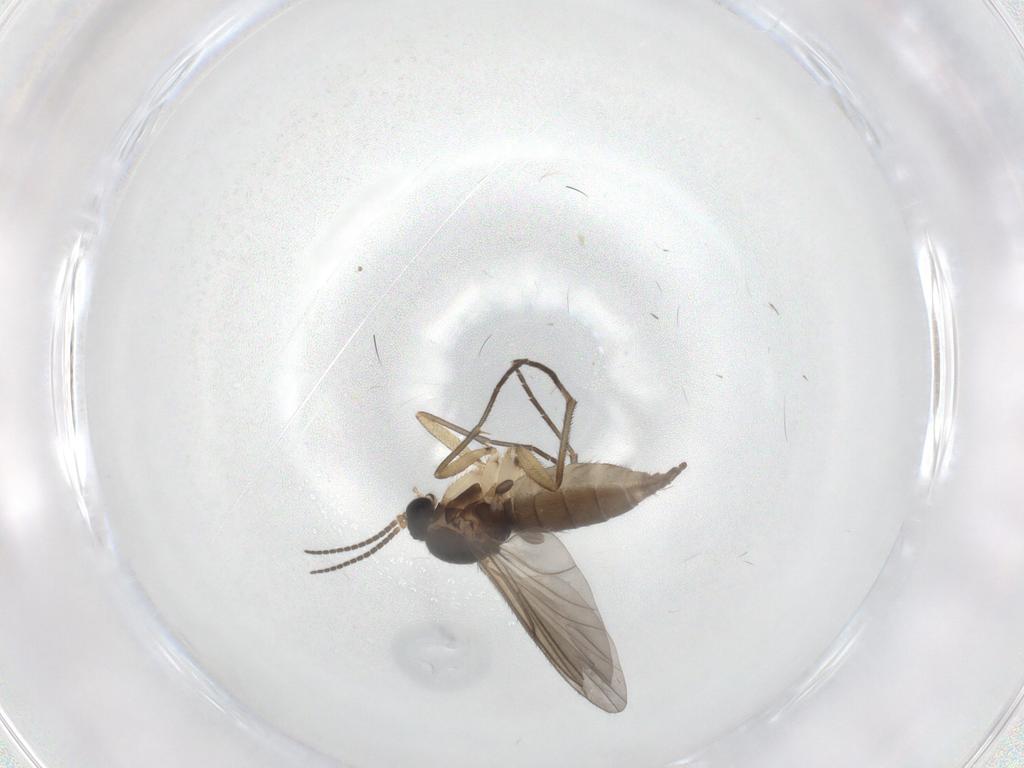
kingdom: Animalia
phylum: Arthropoda
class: Insecta
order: Diptera
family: Sciaridae
